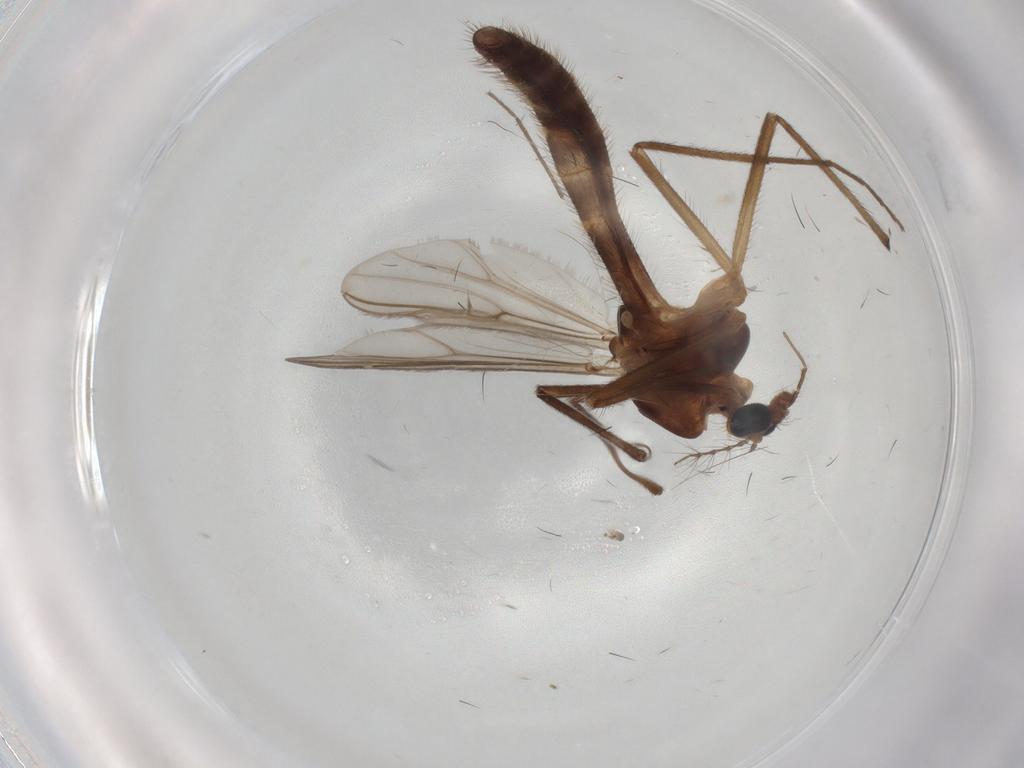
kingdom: Animalia
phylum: Arthropoda
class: Insecta
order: Diptera
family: Chironomidae
